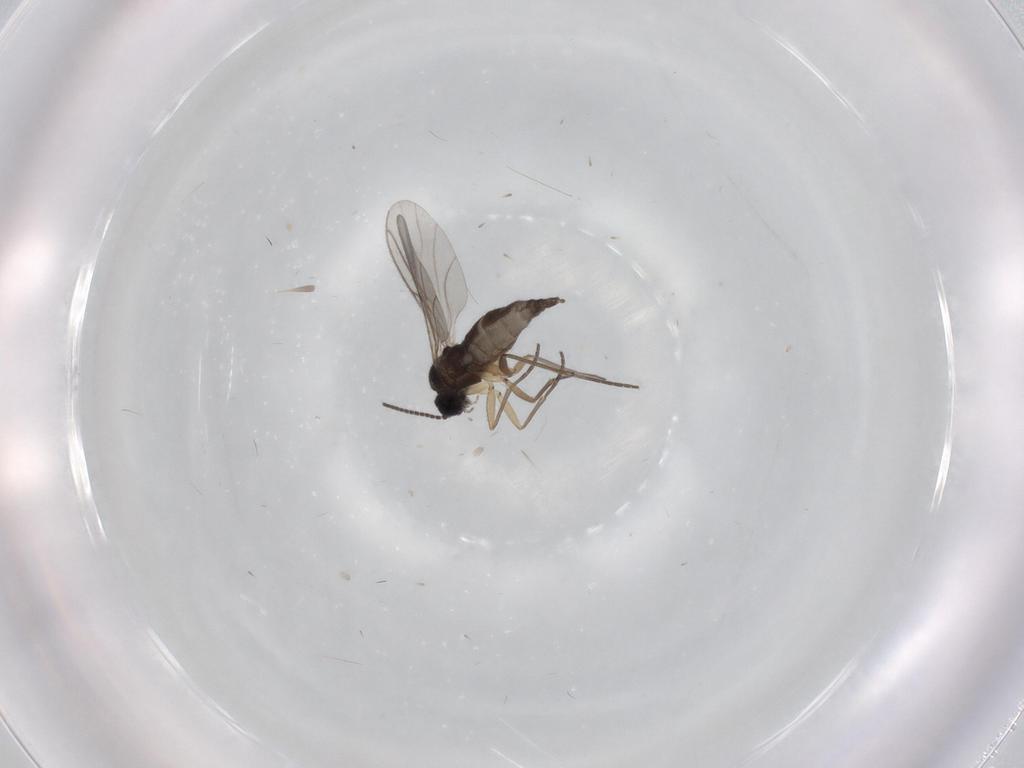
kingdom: Animalia
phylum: Arthropoda
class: Insecta
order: Diptera
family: Sciaridae
